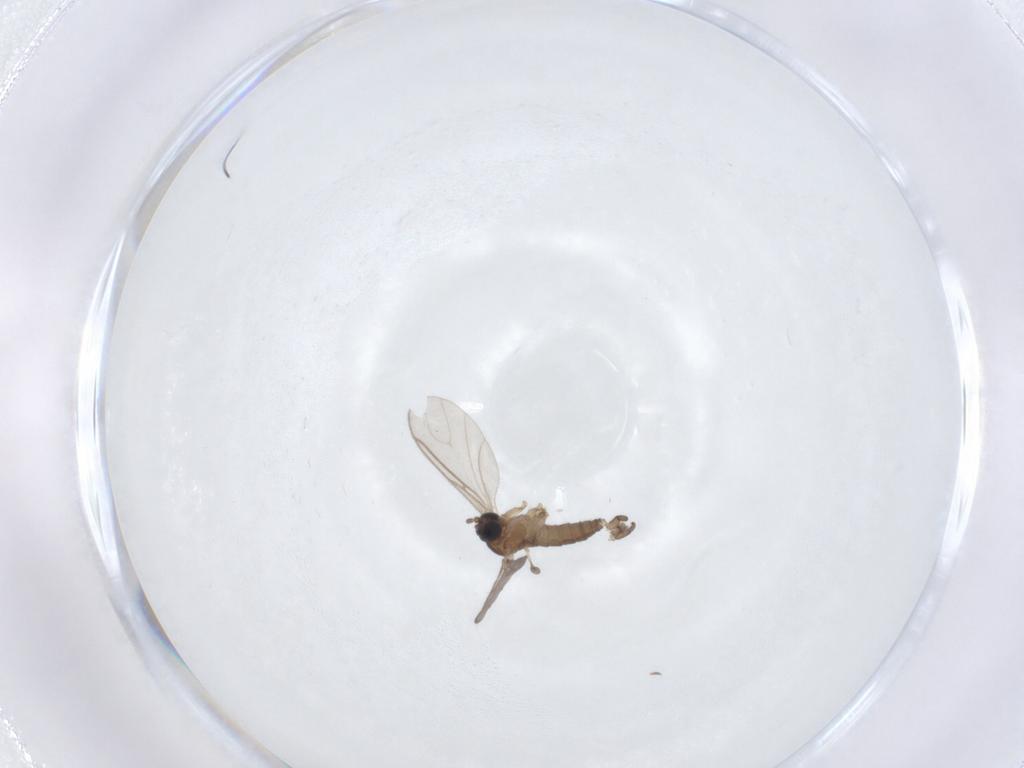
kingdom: Animalia
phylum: Arthropoda
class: Insecta
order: Diptera
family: Sciaridae
